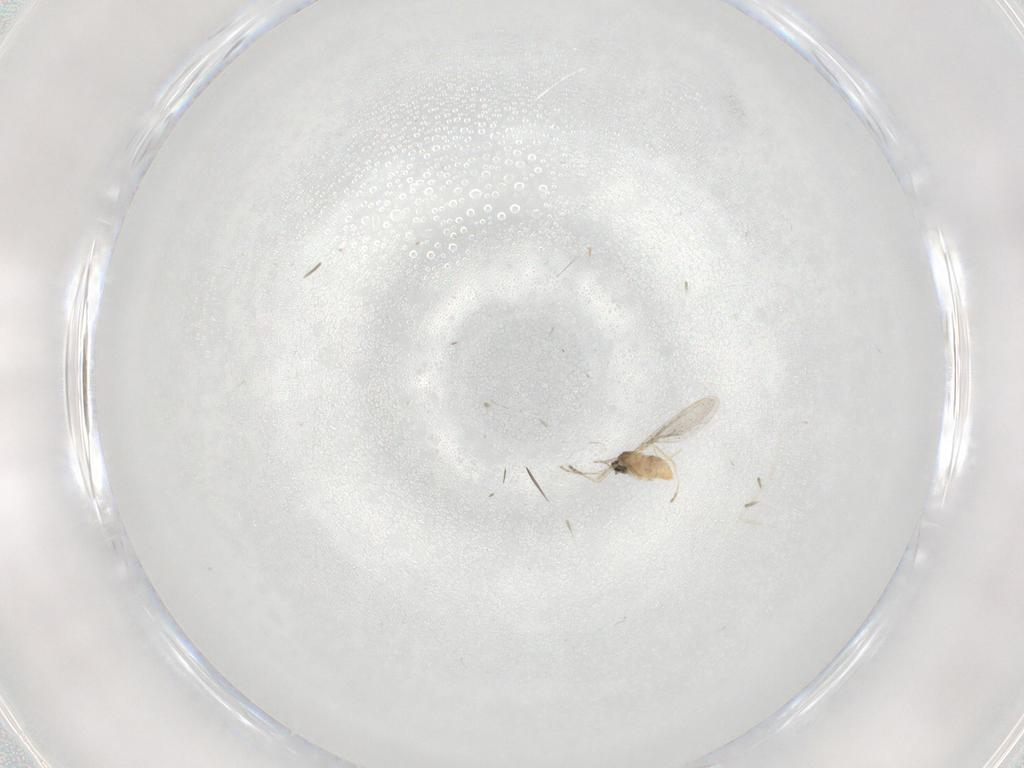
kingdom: Animalia
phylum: Arthropoda
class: Insecta
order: Diptera
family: Cecidomyiidae
